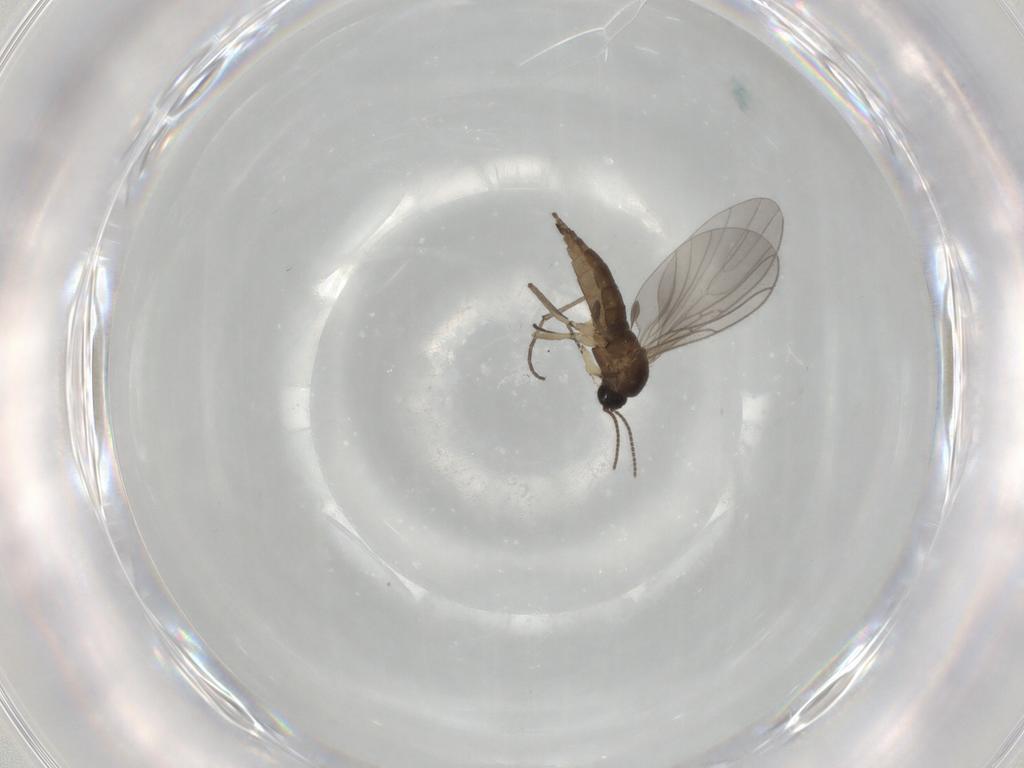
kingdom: Animalia
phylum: Arthropoda
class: Insecta
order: Diptera
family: Sciaridae
